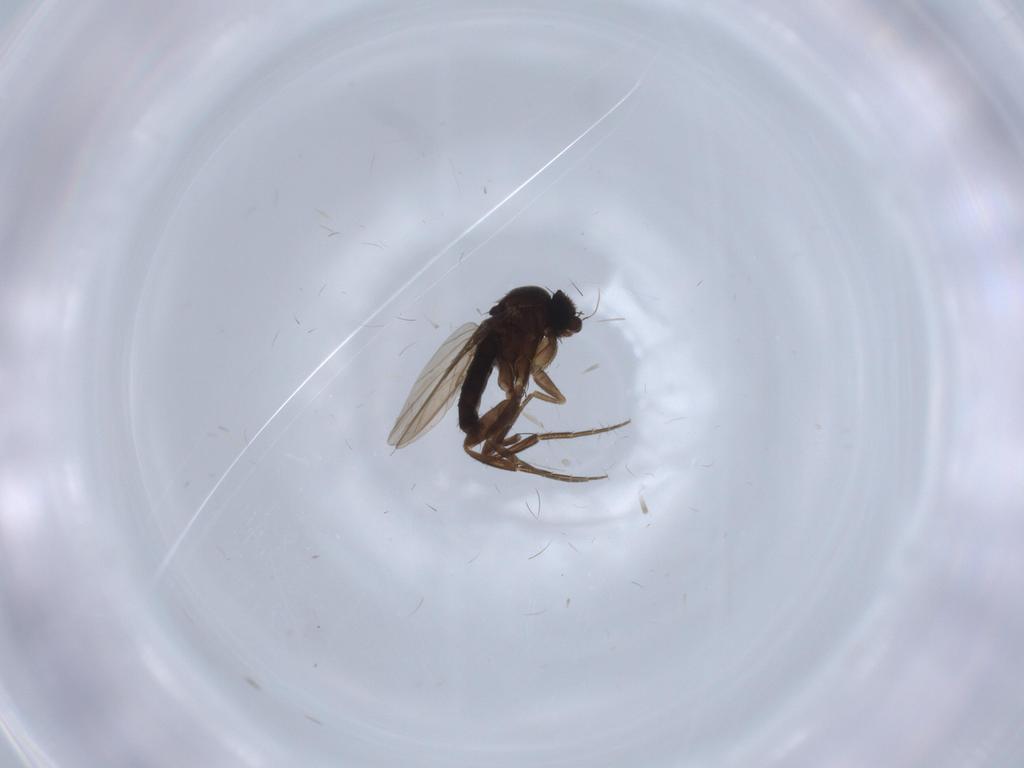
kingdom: Animalia
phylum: Arthropoda
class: Insecta
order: Diptera
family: Phoridae
